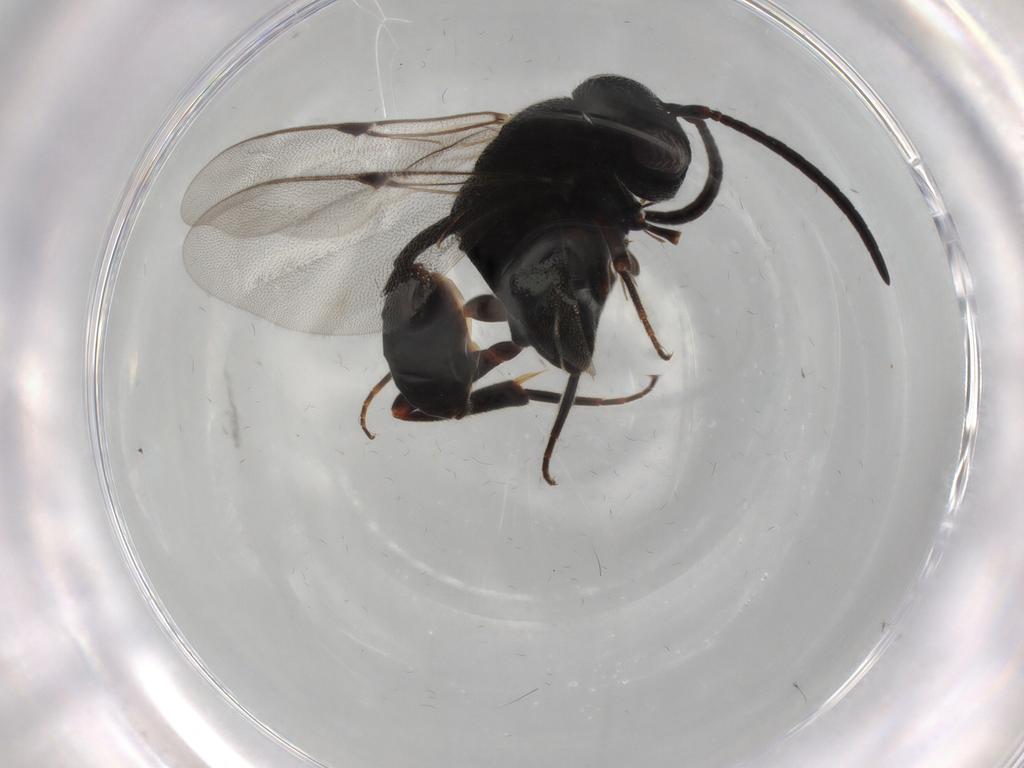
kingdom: Animalia
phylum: Arthropoda
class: Insecta
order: Hymenoptera
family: Evaniidae
